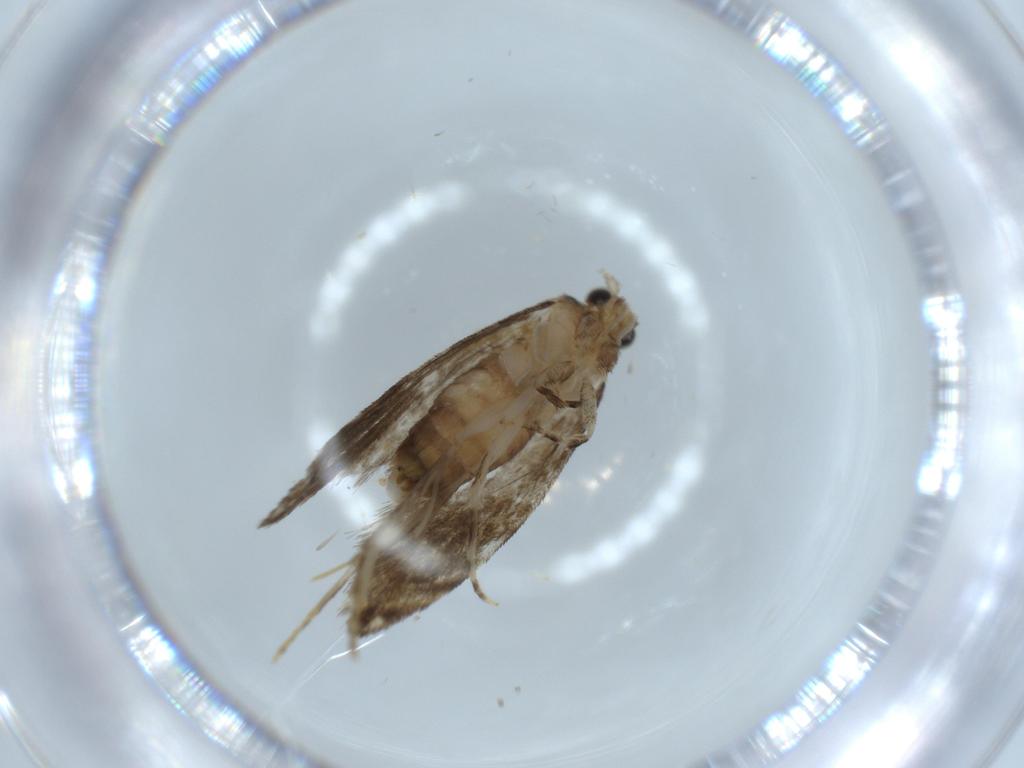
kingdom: Animalia
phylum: Arthropoda
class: Insecta
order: Lepidoptera
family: Tineidae
